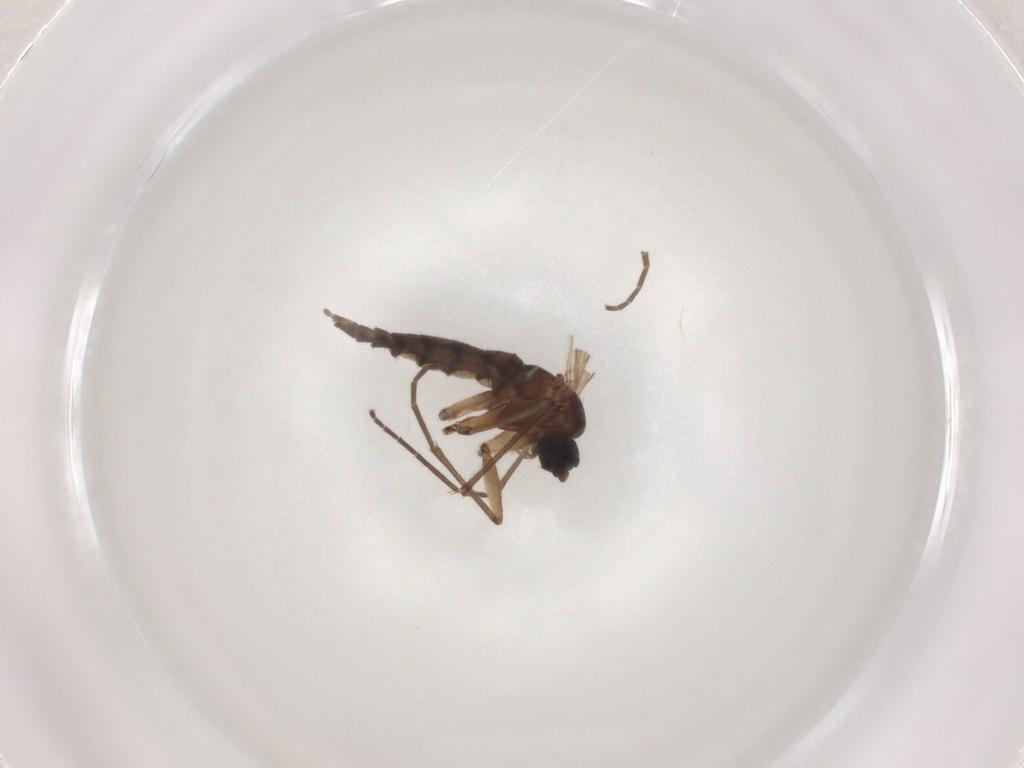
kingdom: Animalia
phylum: Arthropoda
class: Insecta
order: Diptera
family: Sciaridae
